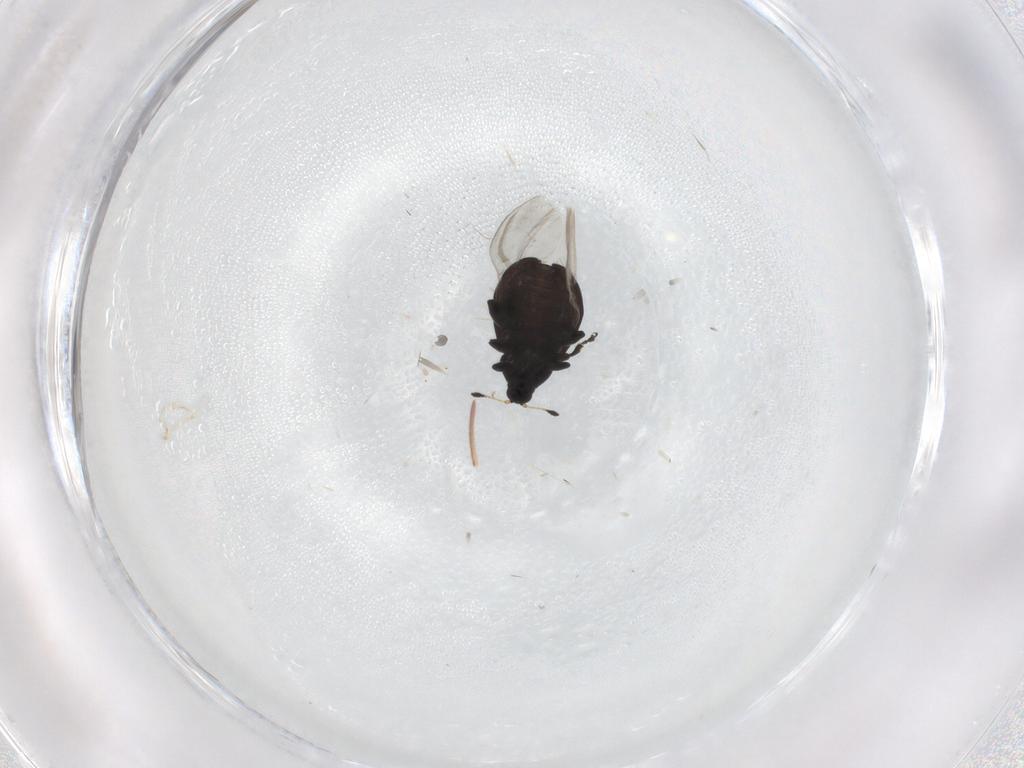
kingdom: Animalia
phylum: Arthropoda
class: Insecta
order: Coleoptera
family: Curculionidae
